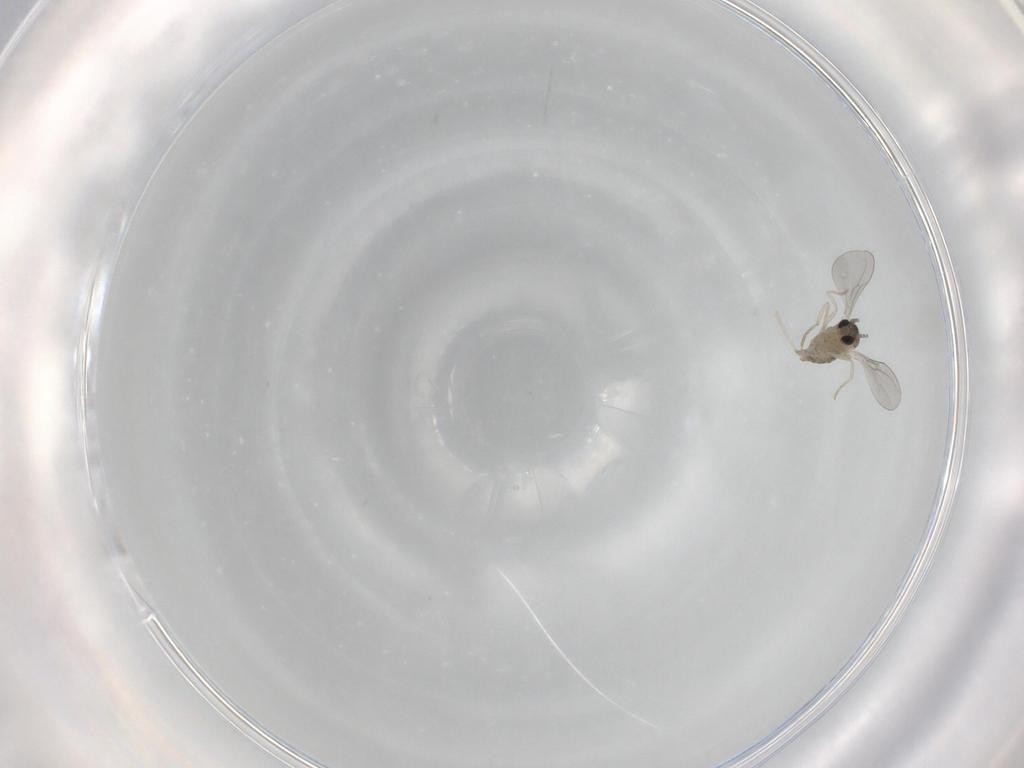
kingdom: Animalia
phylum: Arthropoda
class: Insecta
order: Diptera
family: Cecidomyiidae
